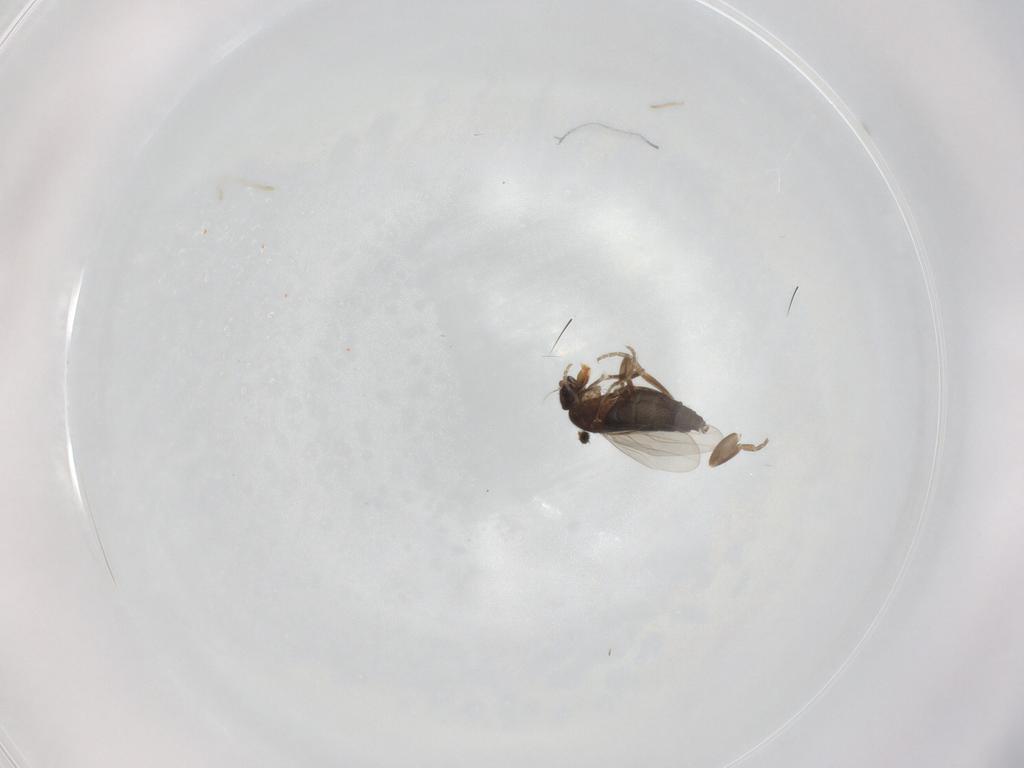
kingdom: Animalia
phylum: Arthropoda
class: Insecta
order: Diptera
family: Phoridae
